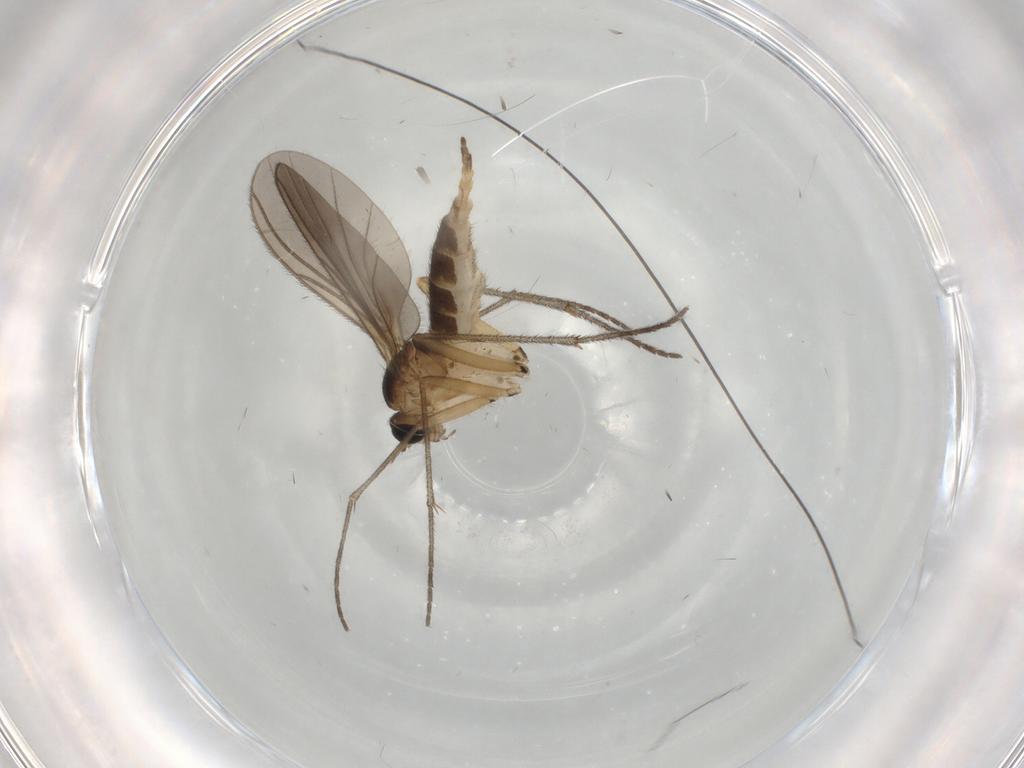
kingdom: Animalia
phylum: Arthropoda
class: Insecta
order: Diptera
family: Sciaridae
